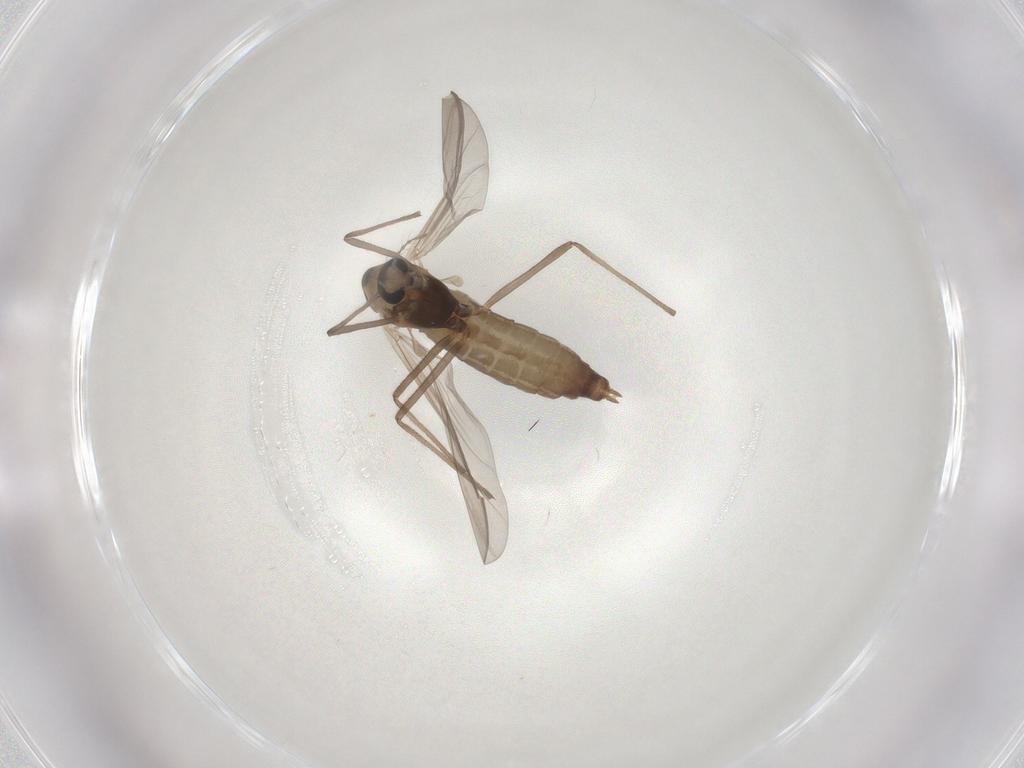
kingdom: Animalia
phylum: Arthropoda
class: Insecta
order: Diptera
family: Chironomidae
